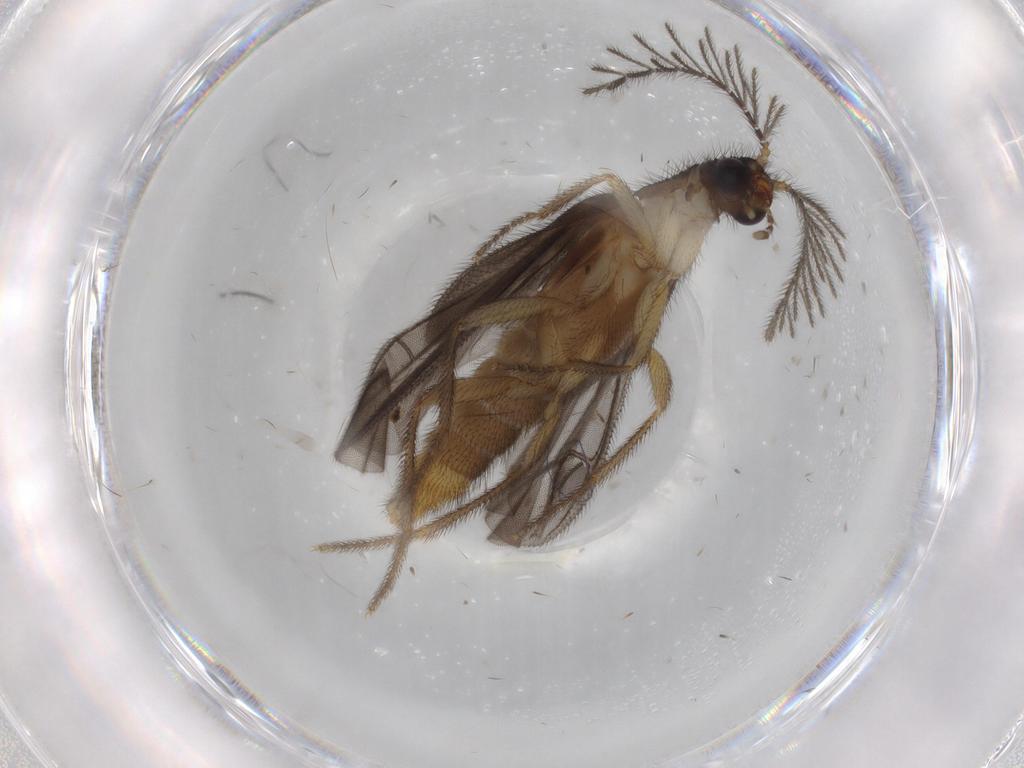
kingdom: Animalia
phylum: Arthropoda
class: Insecta
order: Coleoptera
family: Phengodidae
